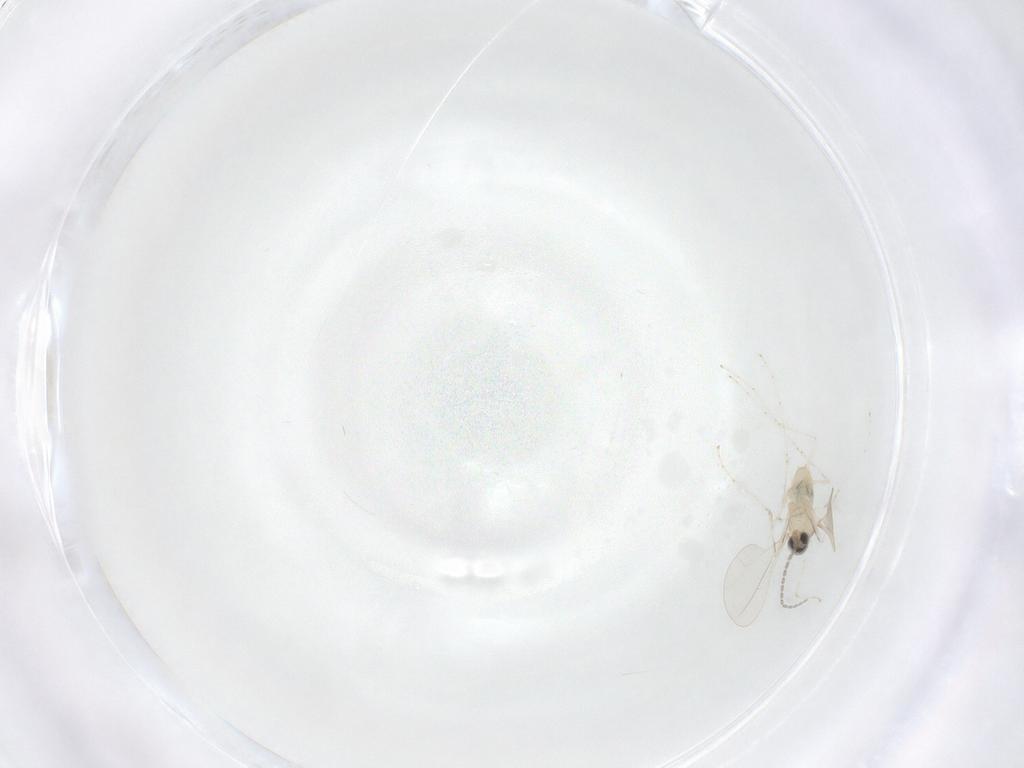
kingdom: Animalia
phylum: Arthropoda
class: Insecta
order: Diptera
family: Cecidomyiidae
